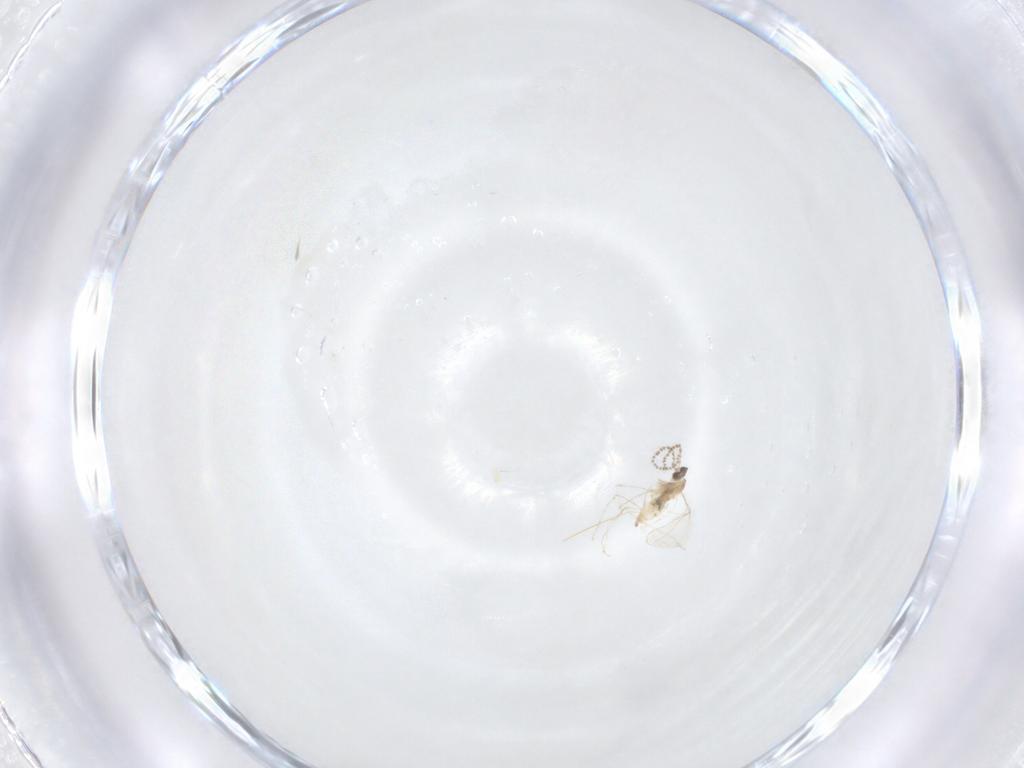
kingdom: Animalia
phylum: Arthropoda
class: Insecta
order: Diptera
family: Cecidomyiidae
